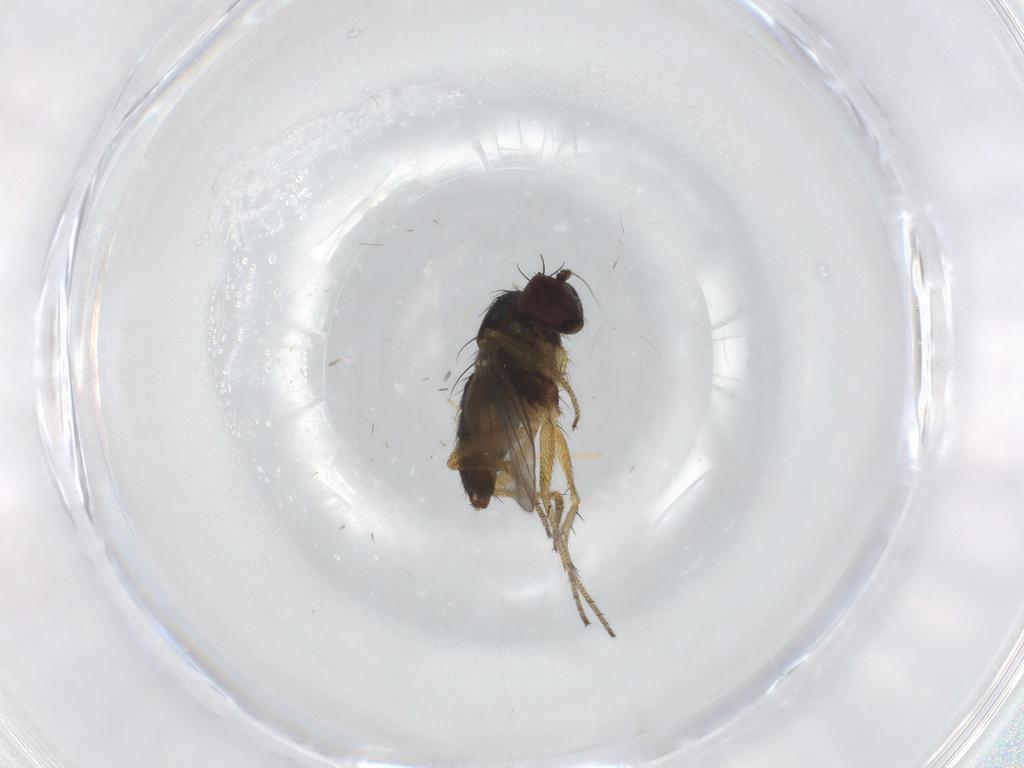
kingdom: Animalia
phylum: Arthropoda
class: Insecta
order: Diptera
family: Dolichopodidae
